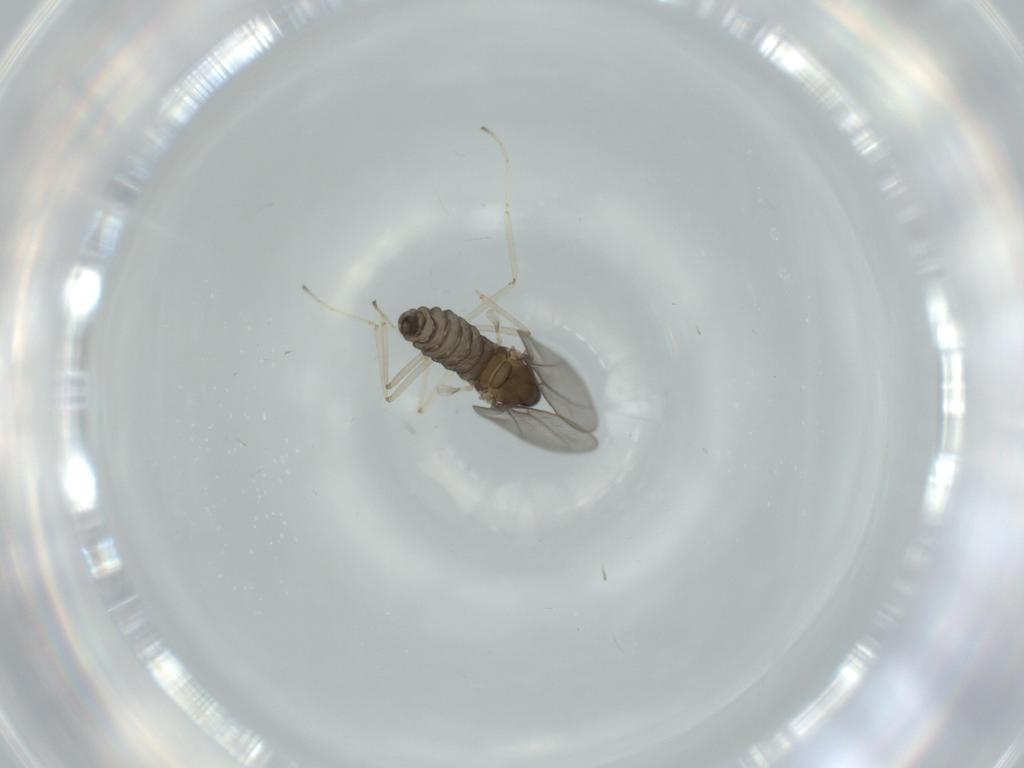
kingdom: Animalia
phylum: Arthropoda
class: Insecta
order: Diptera
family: Cecidomyiidae
